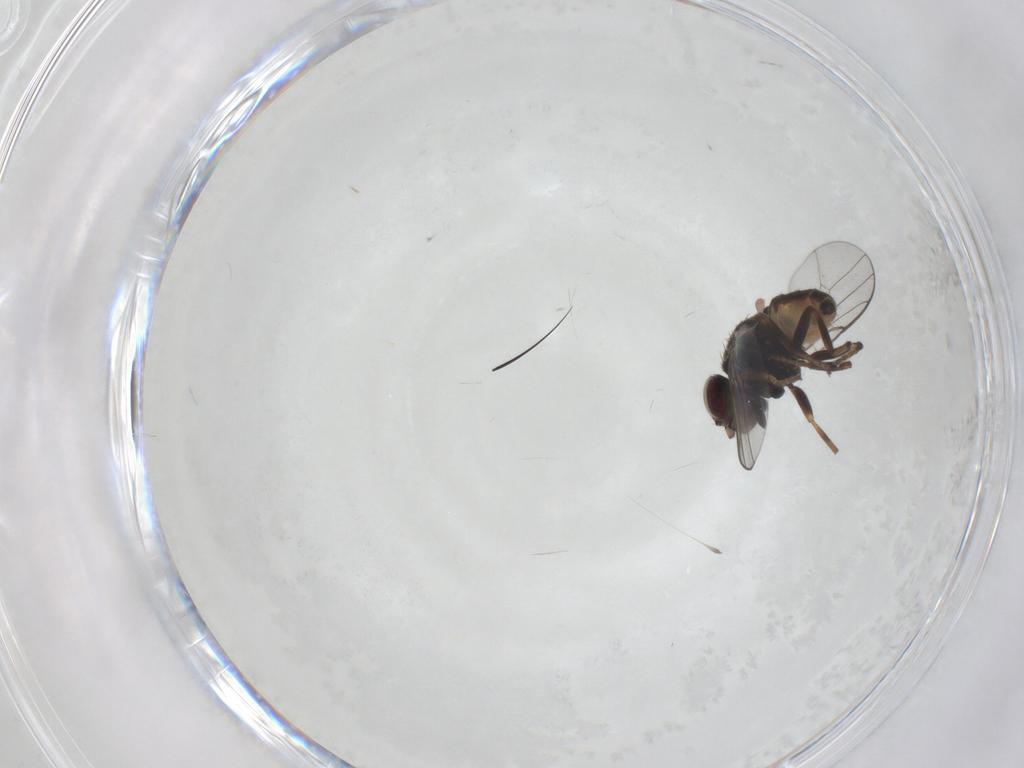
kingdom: Animalia
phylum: Arthropoda
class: Insecta
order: Diptera
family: Chloropidae
